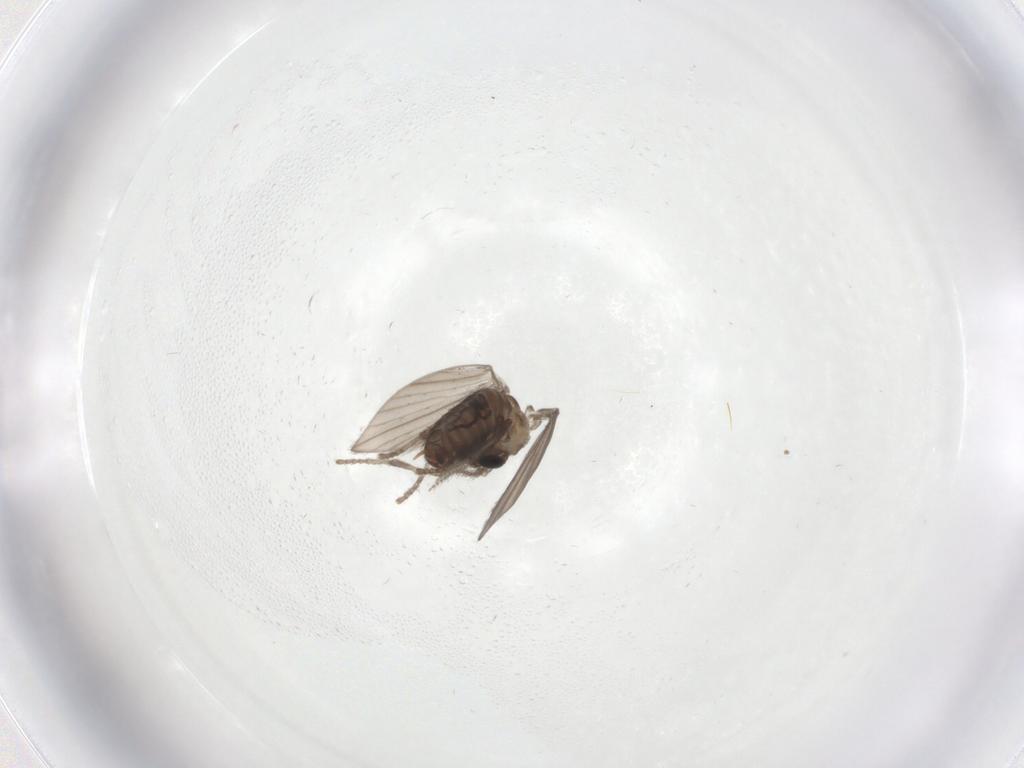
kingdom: Animalia
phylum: Arthropoda
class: Insecta
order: Diptera
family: Psychodidae
